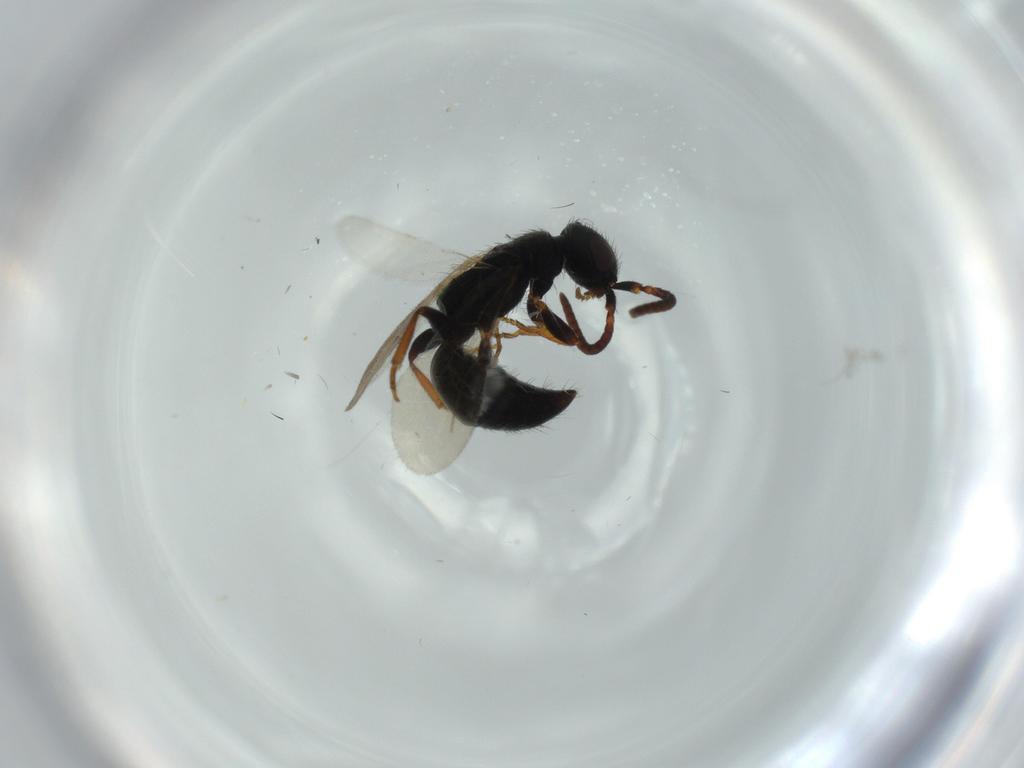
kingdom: Animalia
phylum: Arthropoda
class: Insecta
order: Hymenoptera
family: Bethylidae
